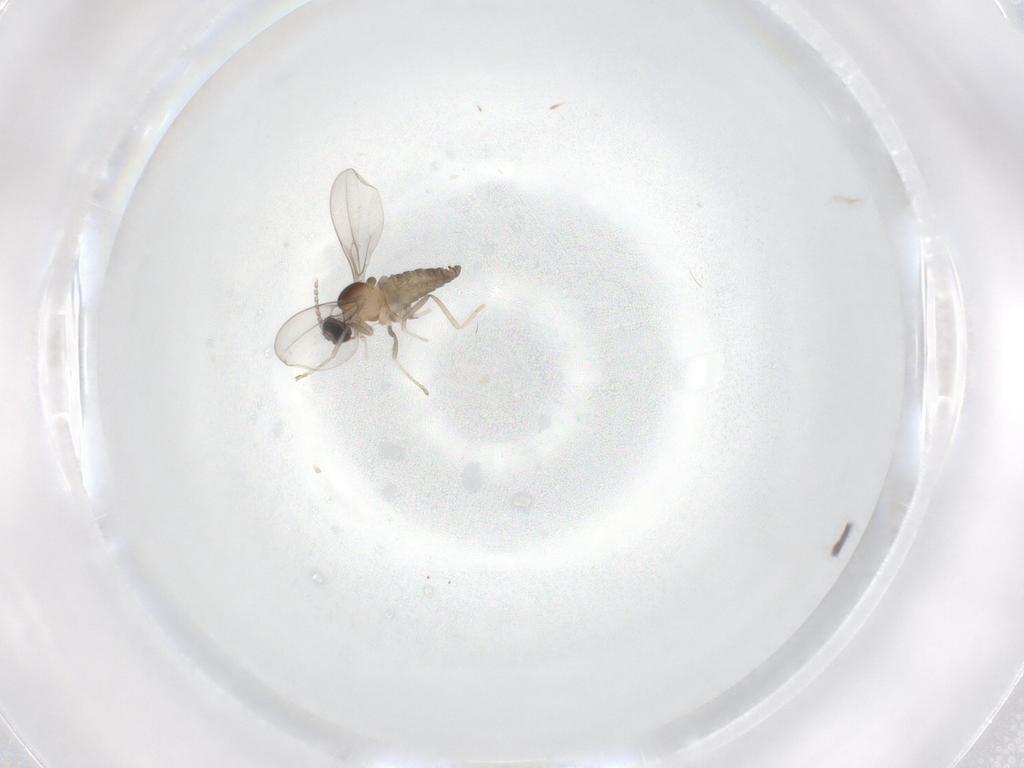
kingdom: Animalia
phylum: Arthropoda
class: Insecta
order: Diptera
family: Cecidomyiidae
